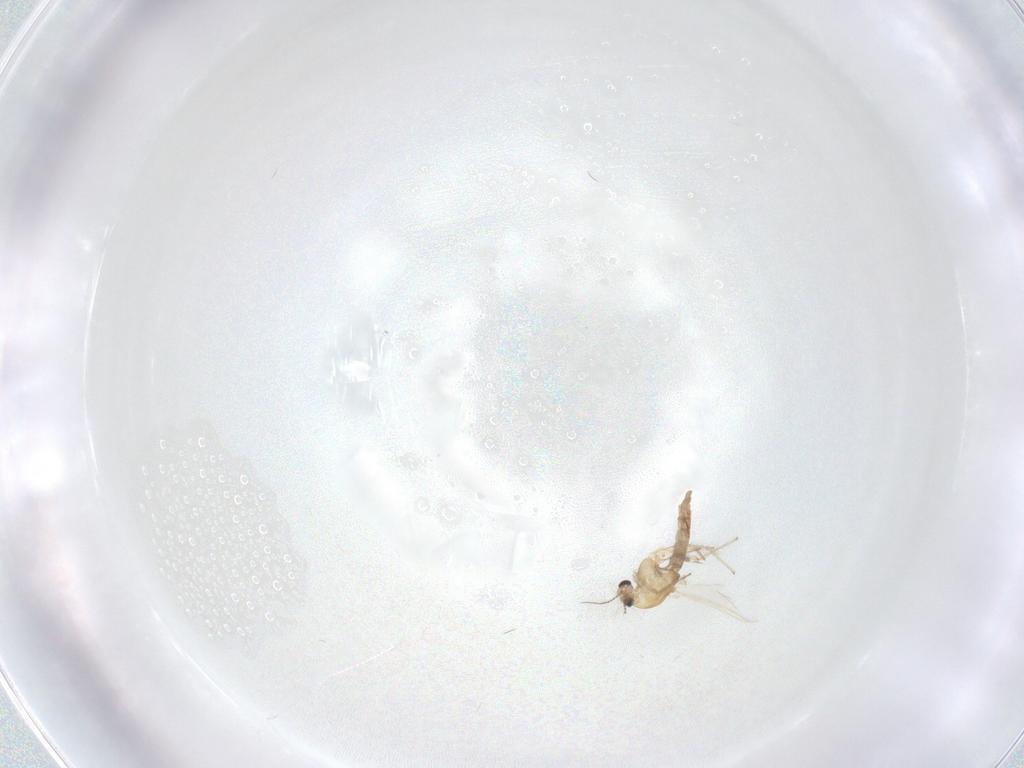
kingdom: Animalia
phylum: Arthropoda
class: Insecta
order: Diptera
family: Chironomidae
